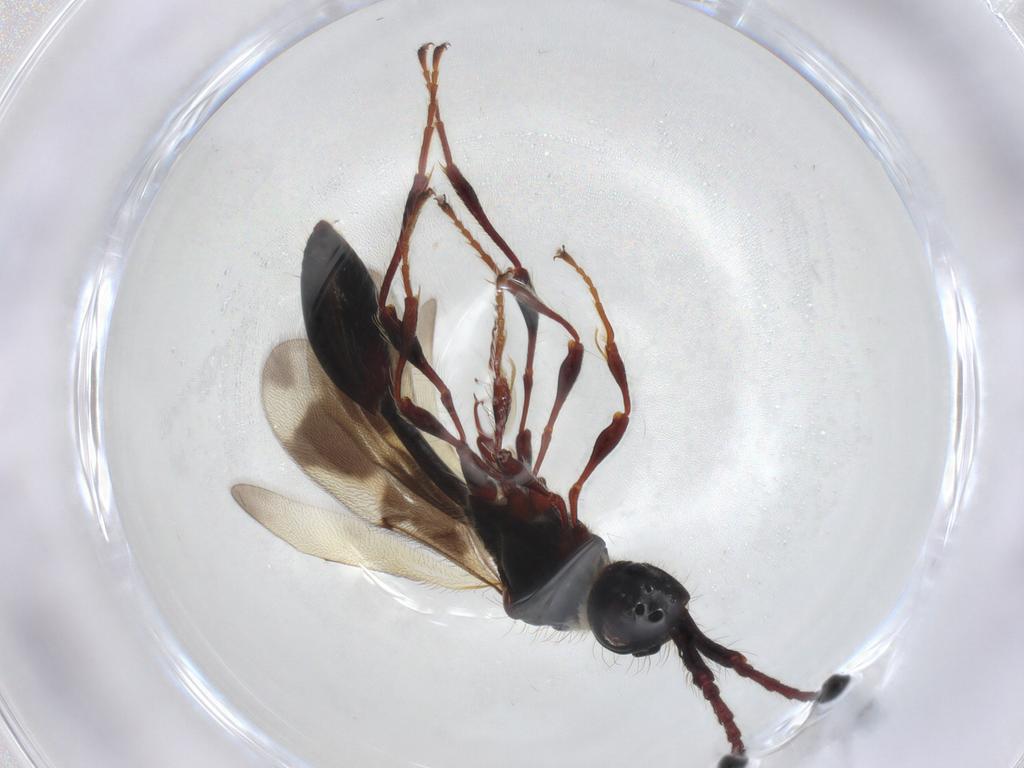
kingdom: Animalia
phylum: Arthropoda
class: Insecta
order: Hymenoptera
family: Diapriidae
